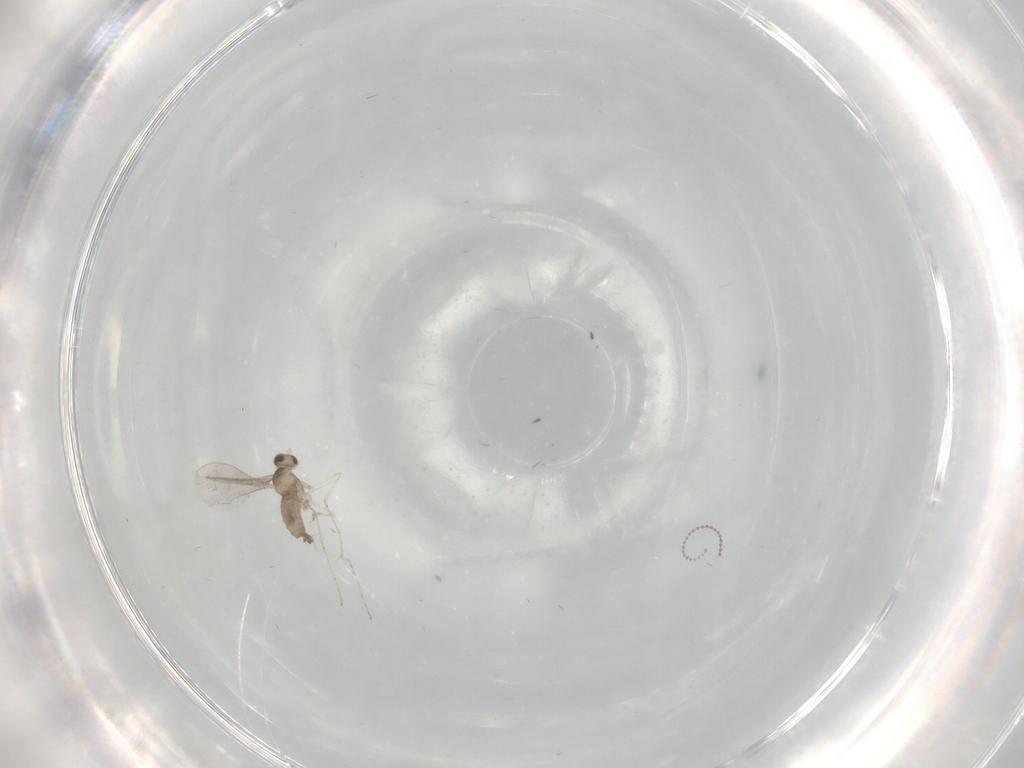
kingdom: Animalia
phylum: Arthropoda
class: Insecta
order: Diptera
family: Cecidomyiidae
